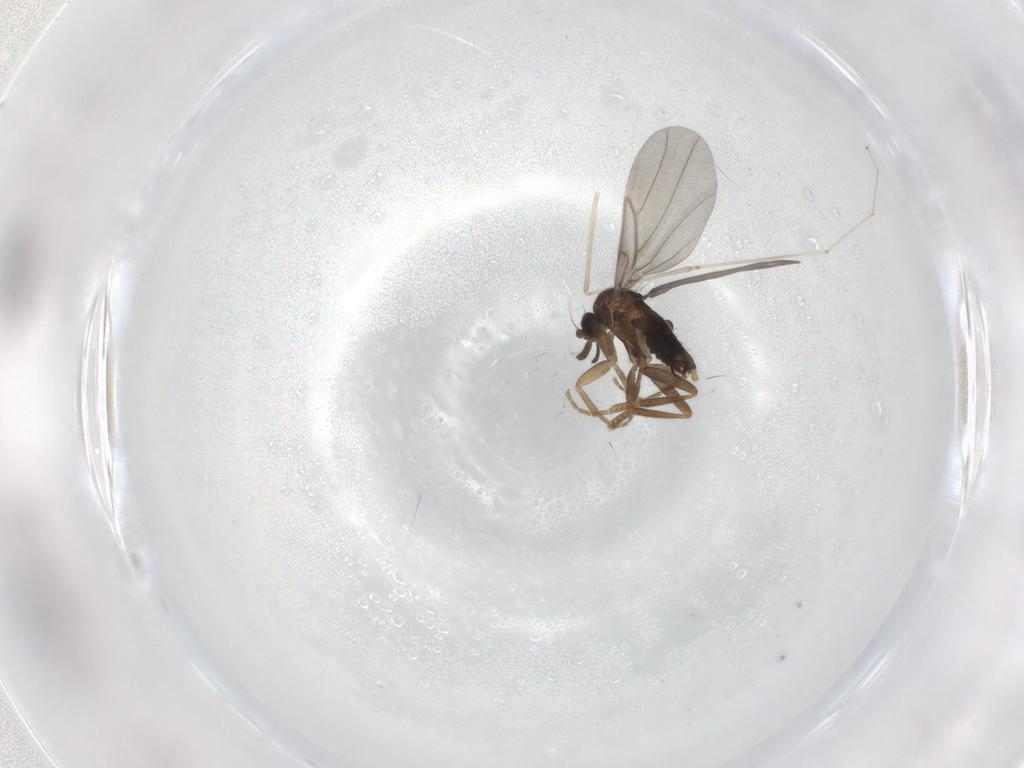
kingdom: Animalia
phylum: Arthropoda
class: Insecta
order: Diptera
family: Cecidomyiidae
